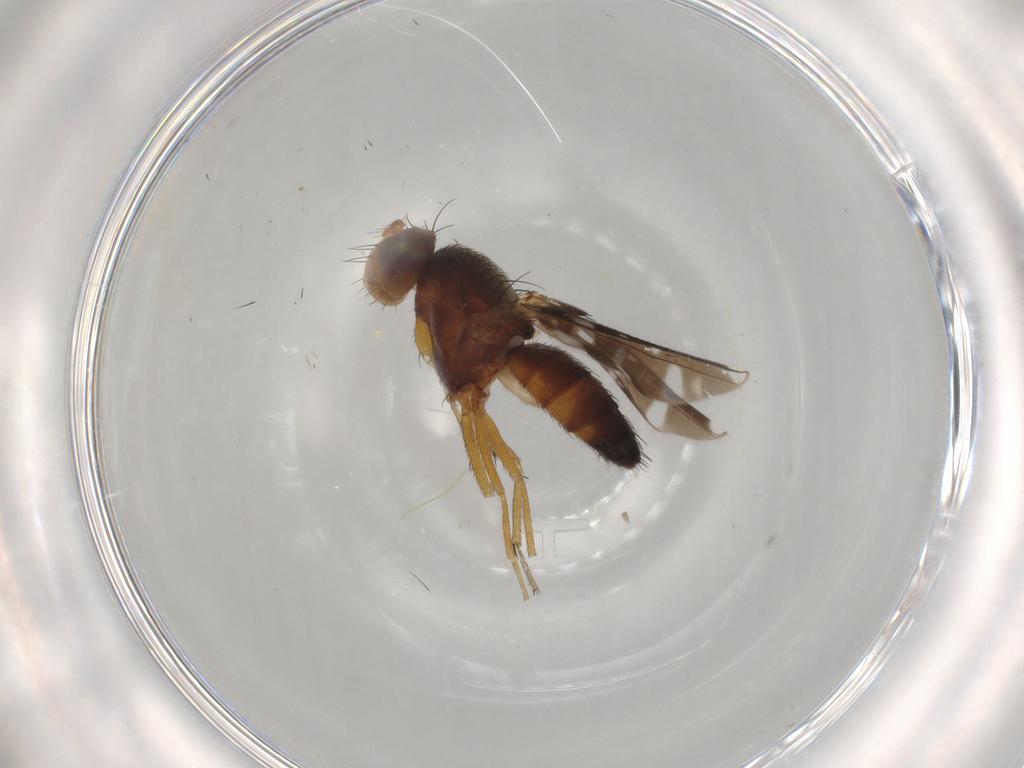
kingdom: Animalia
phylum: Arthropoda
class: Insecta
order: Diptera
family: Ephydridae
